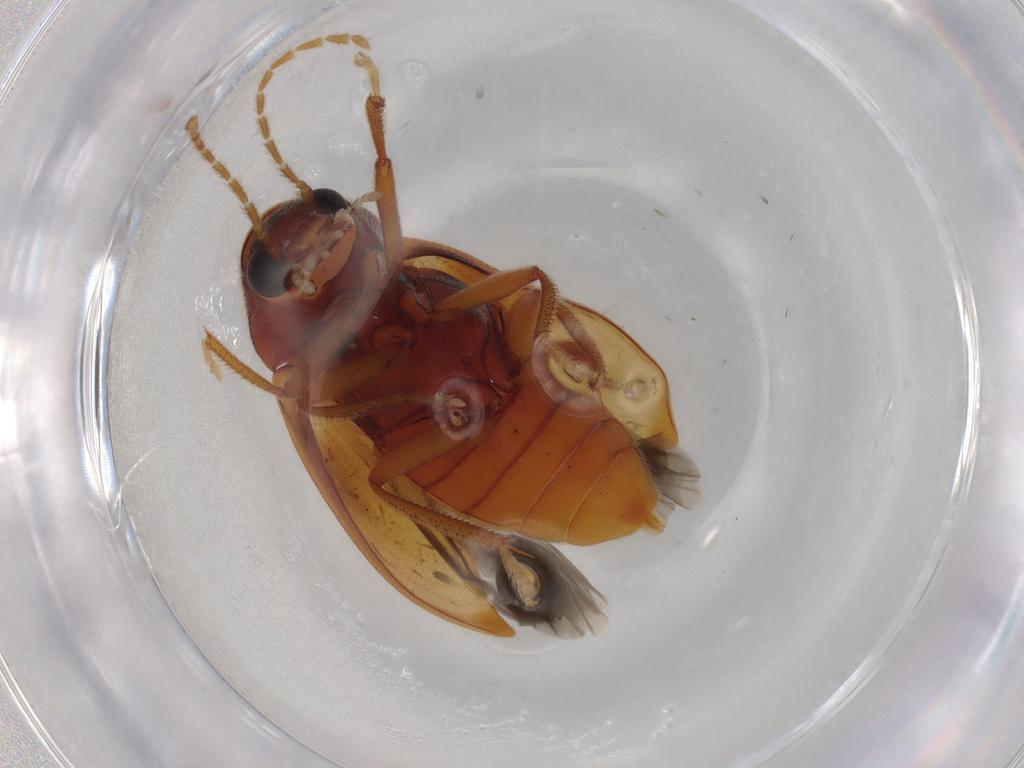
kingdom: Animalia
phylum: Arthropoda
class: Insecta
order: Coleoptera
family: Ptilodactylidae
